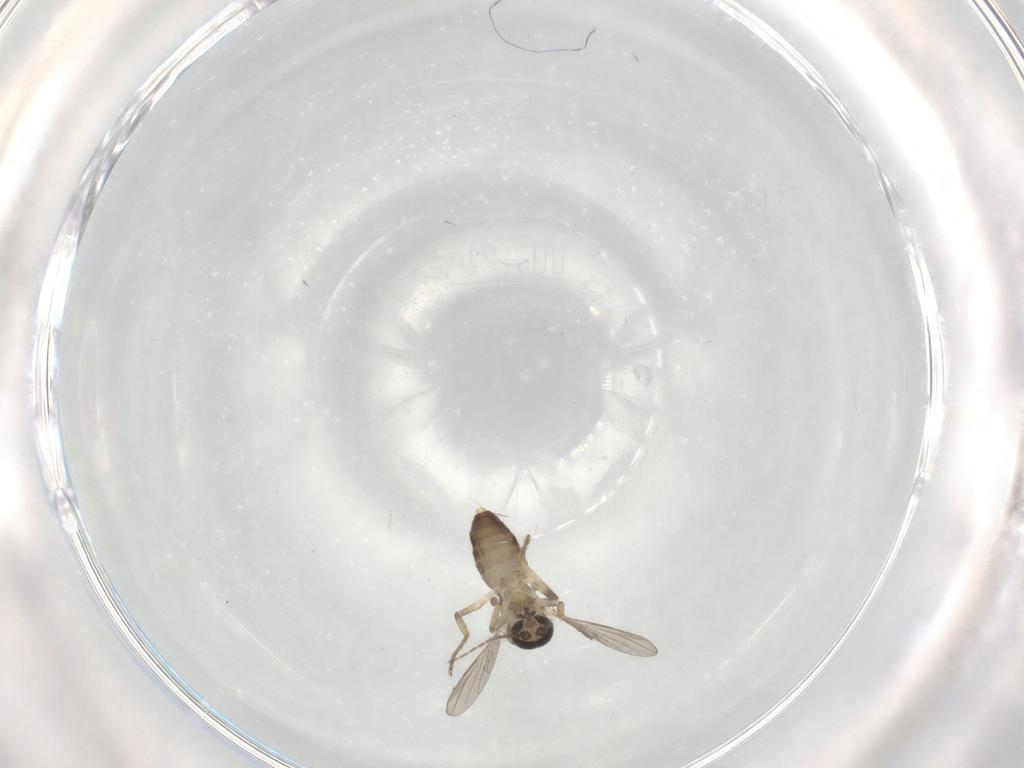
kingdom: Animalia
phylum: Arthropoda
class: Insecta
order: Diptera
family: Ceratopogonidae
